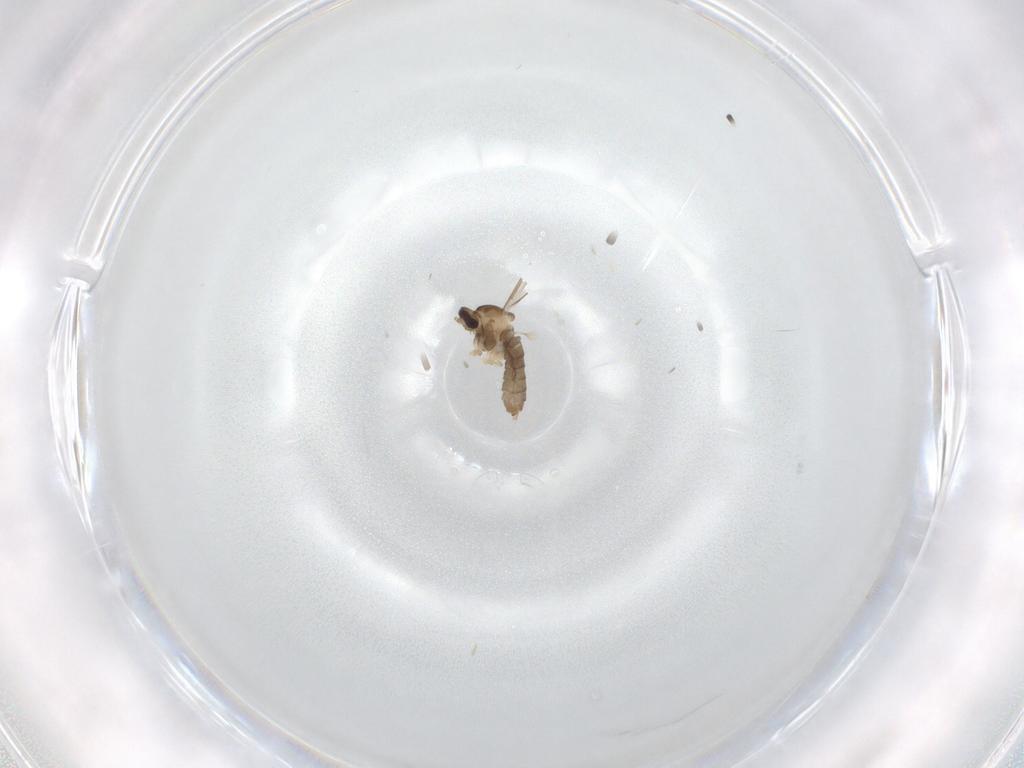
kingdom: Animalia
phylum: Arthropoda
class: Insecta
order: Diptera
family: Cecidomyiidae
